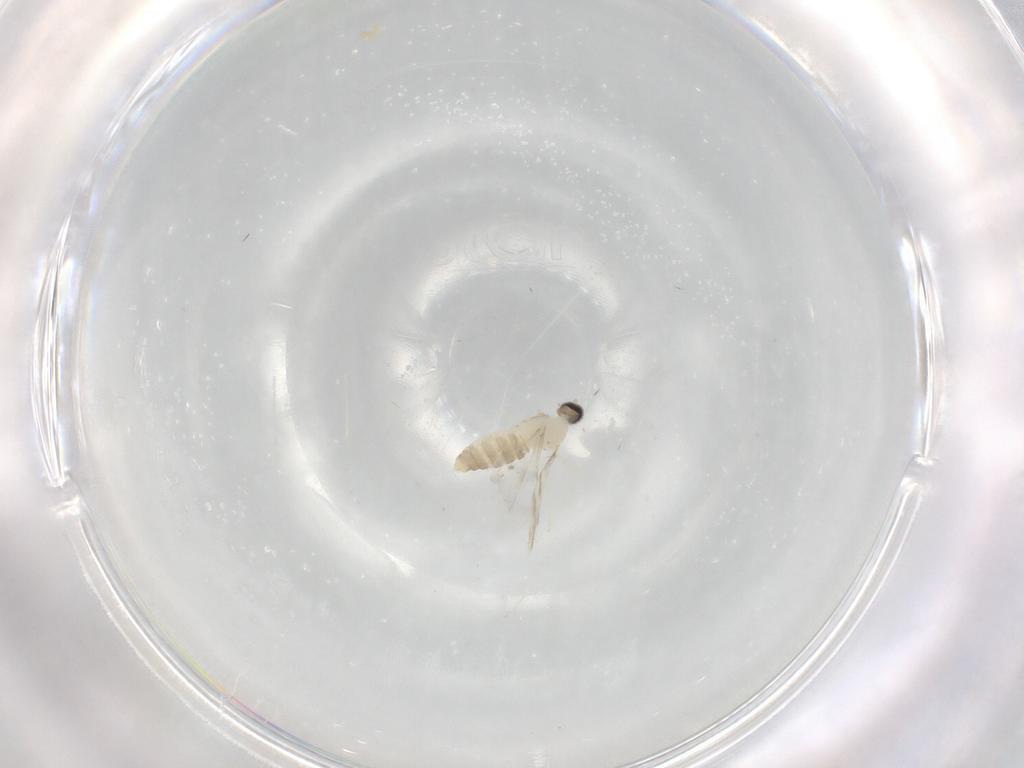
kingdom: Animalia
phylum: Arthropoda
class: Insecta
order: Diptera
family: Cecidomyiidae
